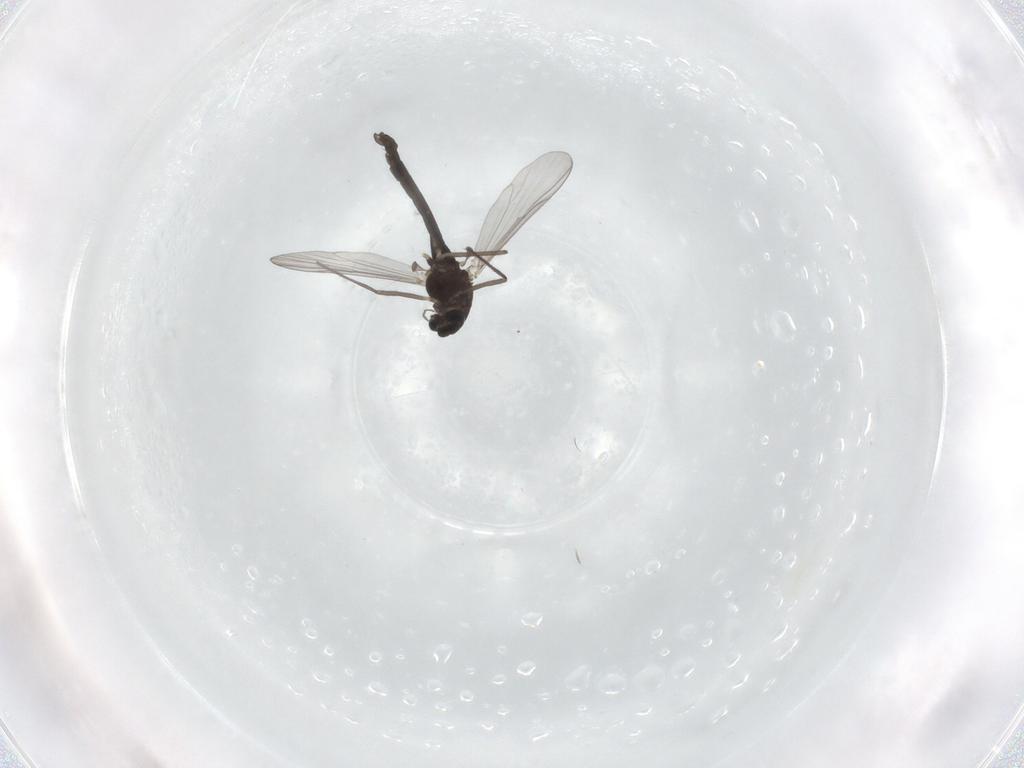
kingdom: Animalia
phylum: Arthropoda
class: Insecta
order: Diptera
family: Chironomidae
